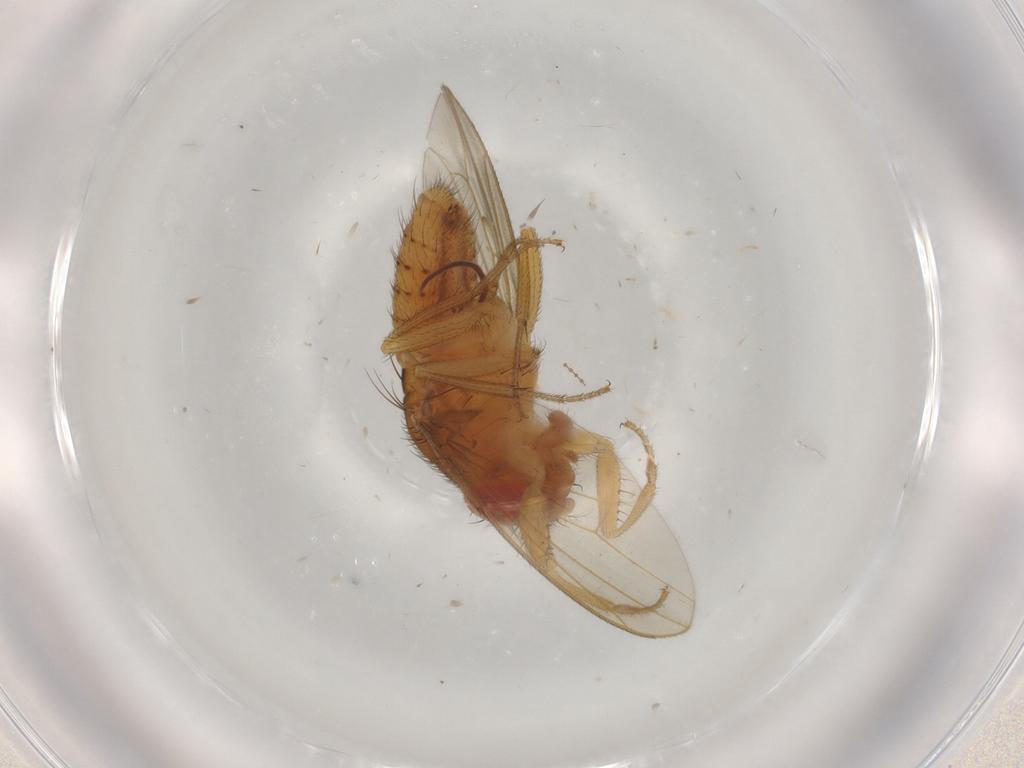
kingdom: Animalia
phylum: Arthropoda
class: Insecta
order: Diptera
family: Drosophilidae
